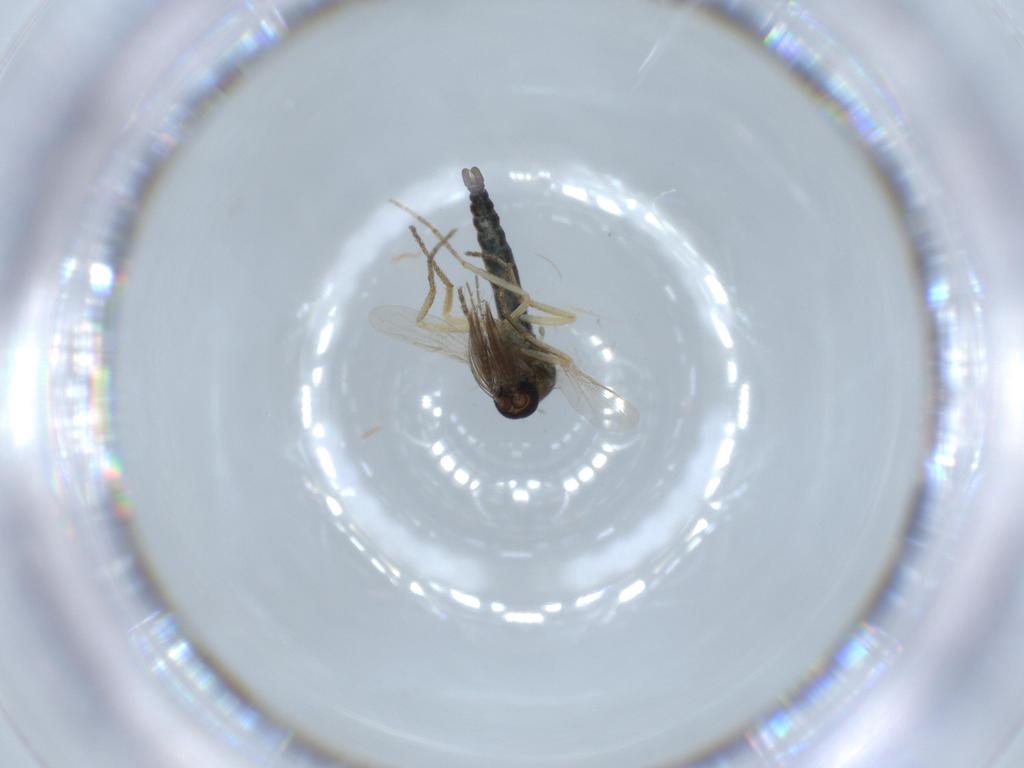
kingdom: Animalia
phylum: Arthropoda
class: Insecta
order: Diptera
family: Ceratopogonidae
